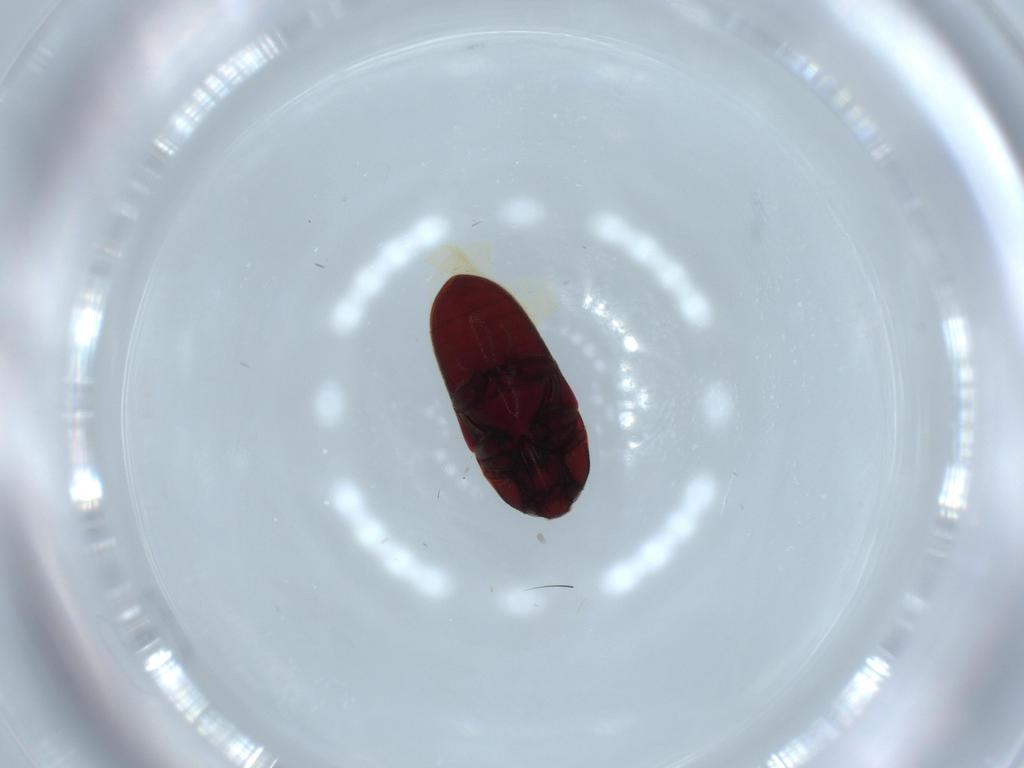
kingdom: Animalia
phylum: Arthropoda
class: Insecta
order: Coleoptera
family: Throscidae
